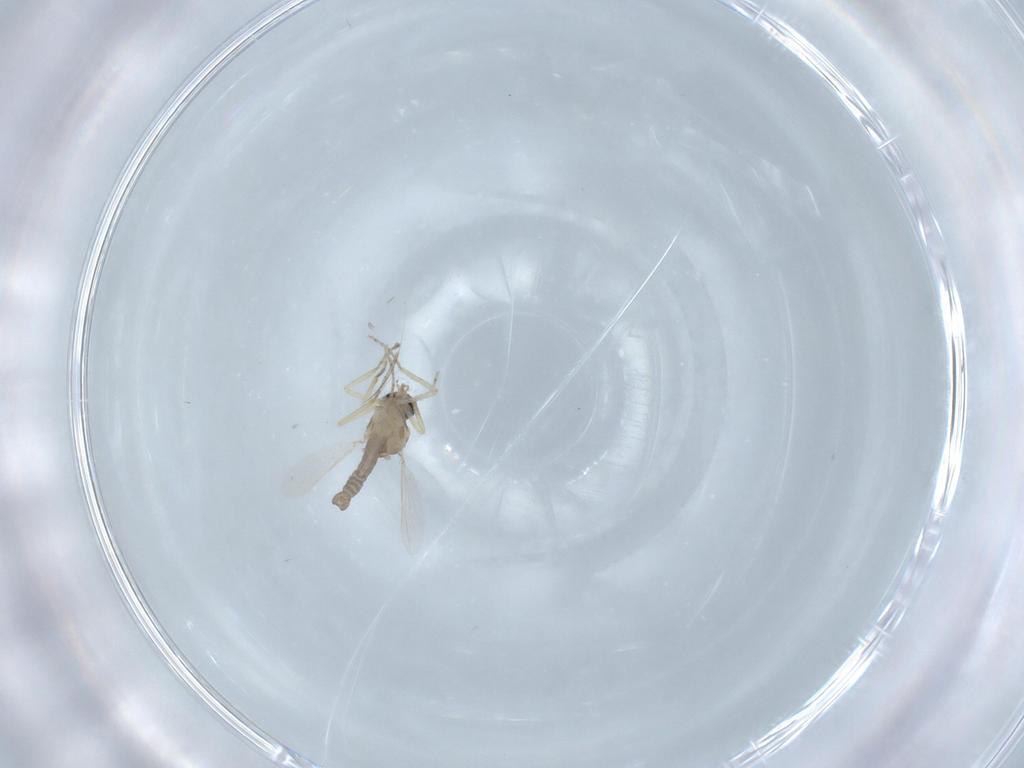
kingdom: Animalia
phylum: Arthropoda
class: Insecta
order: Diptera
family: Ceratopogonidae
